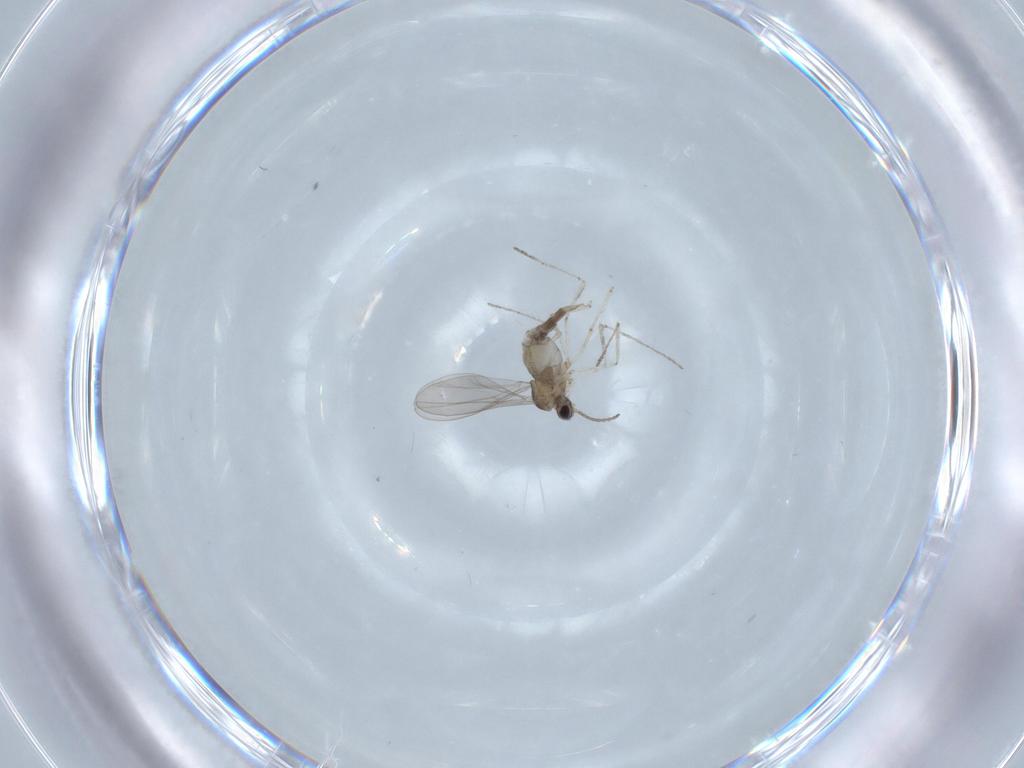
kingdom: Animalia
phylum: Arthropoda
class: Insecta
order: Diptera
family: Cecidomyiidae
